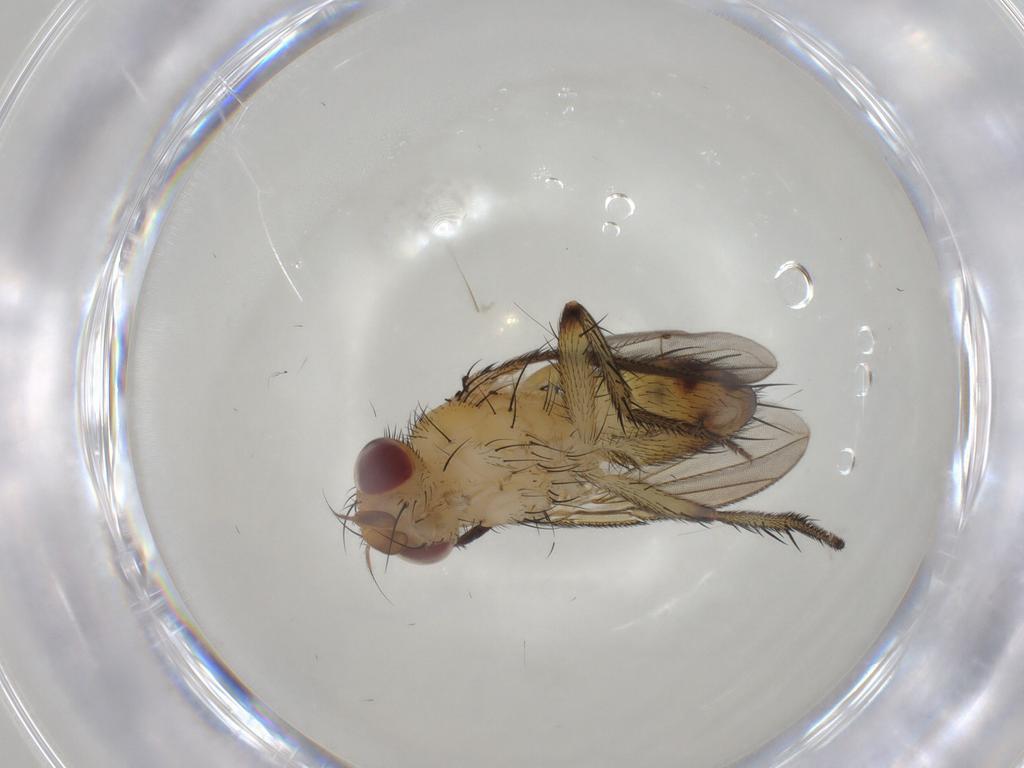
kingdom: Animalia
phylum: Arthropoda
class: Insecta
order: Diptera
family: Tachinidae
